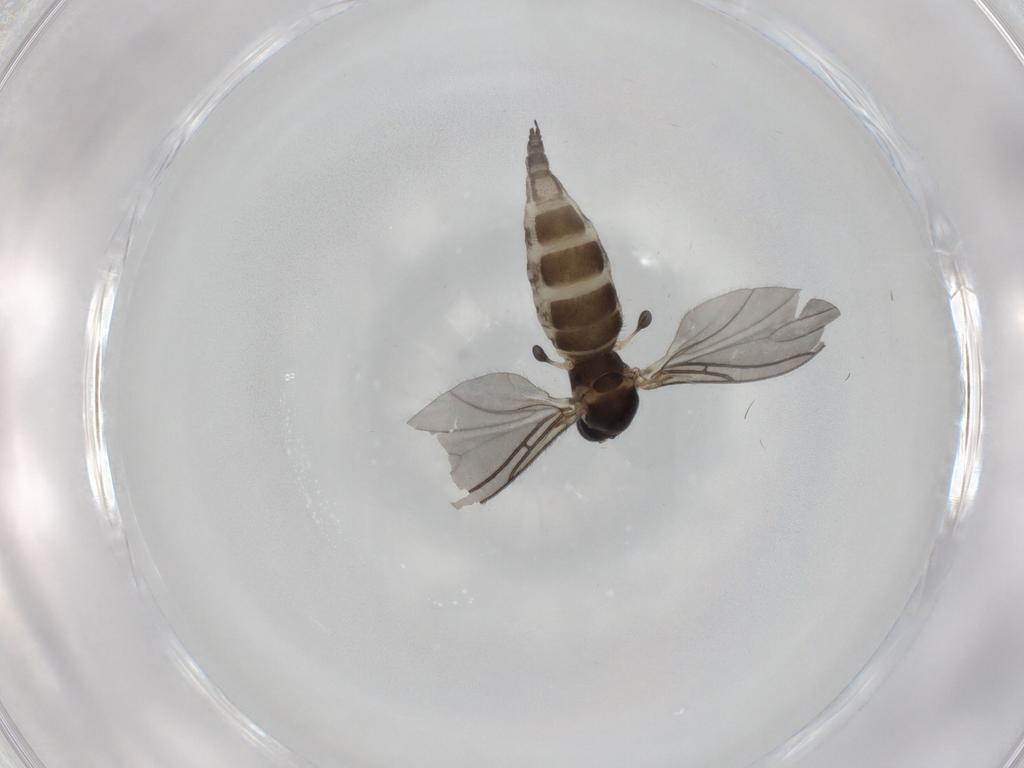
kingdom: Animalia
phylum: Arthropoda
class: Insecta
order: Diptera
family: Sciaridae
